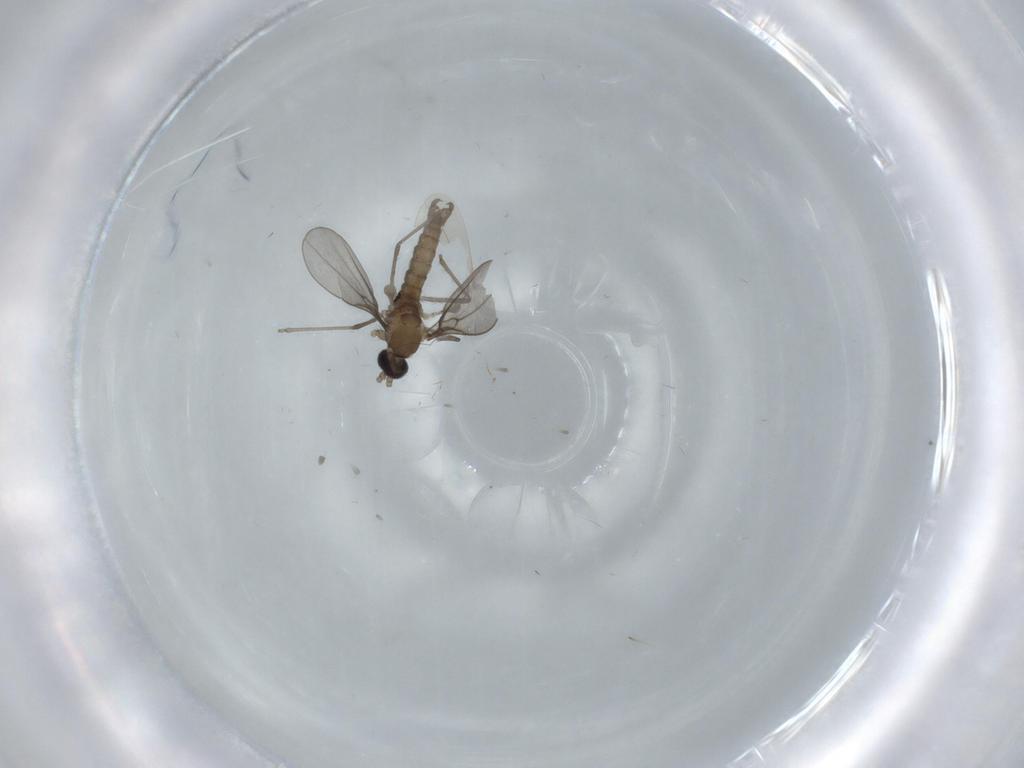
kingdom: Animalia
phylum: Arthropoda
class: Insecta
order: Diptera
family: Cecidomyiidae
